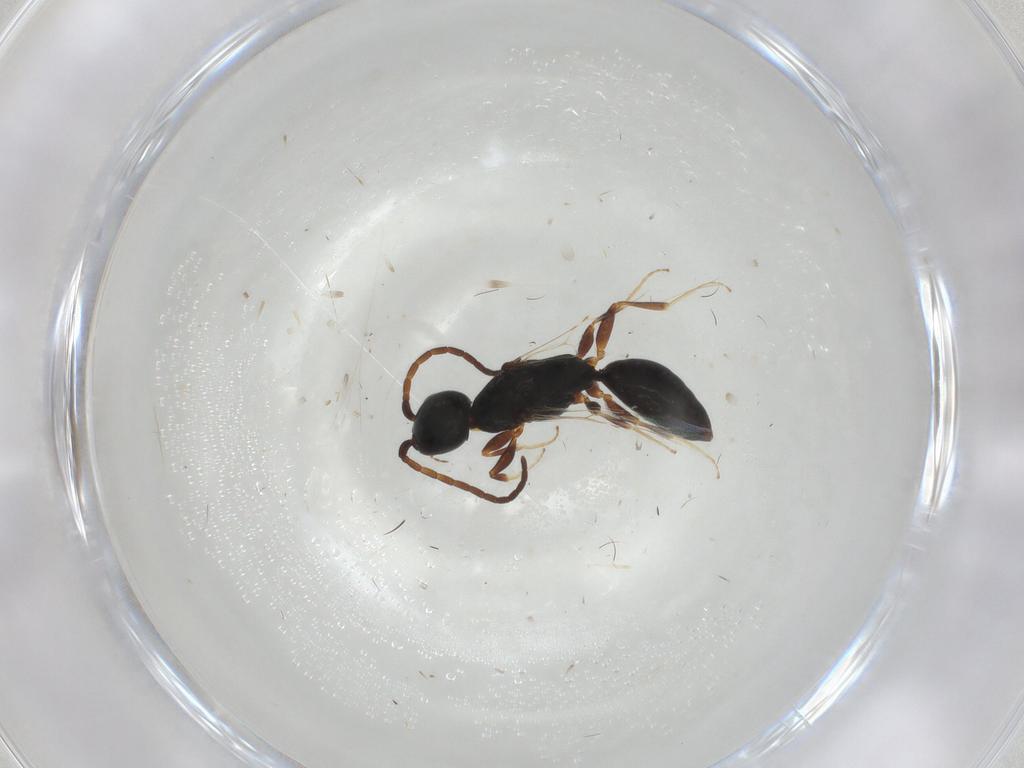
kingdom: Animalia
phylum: Arthropoda
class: Insecta
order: Hymenoptera
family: Bethylidae
